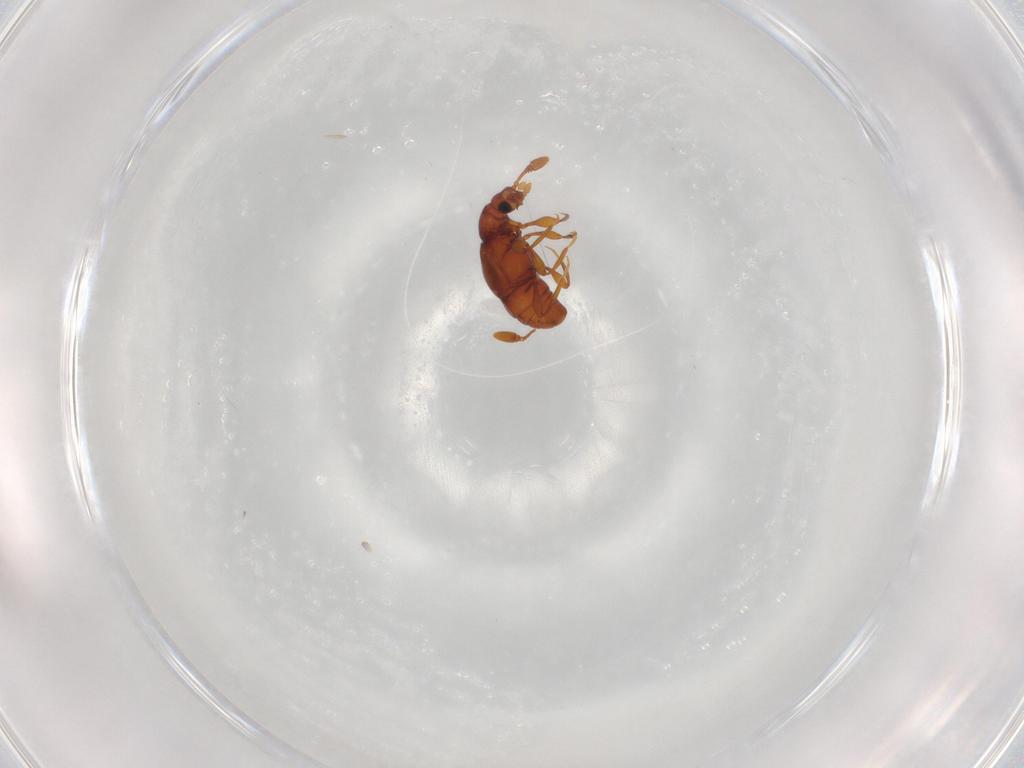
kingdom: Animalia
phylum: Arthropoda
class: Insecta
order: Coleoptera
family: Staphylinidae
